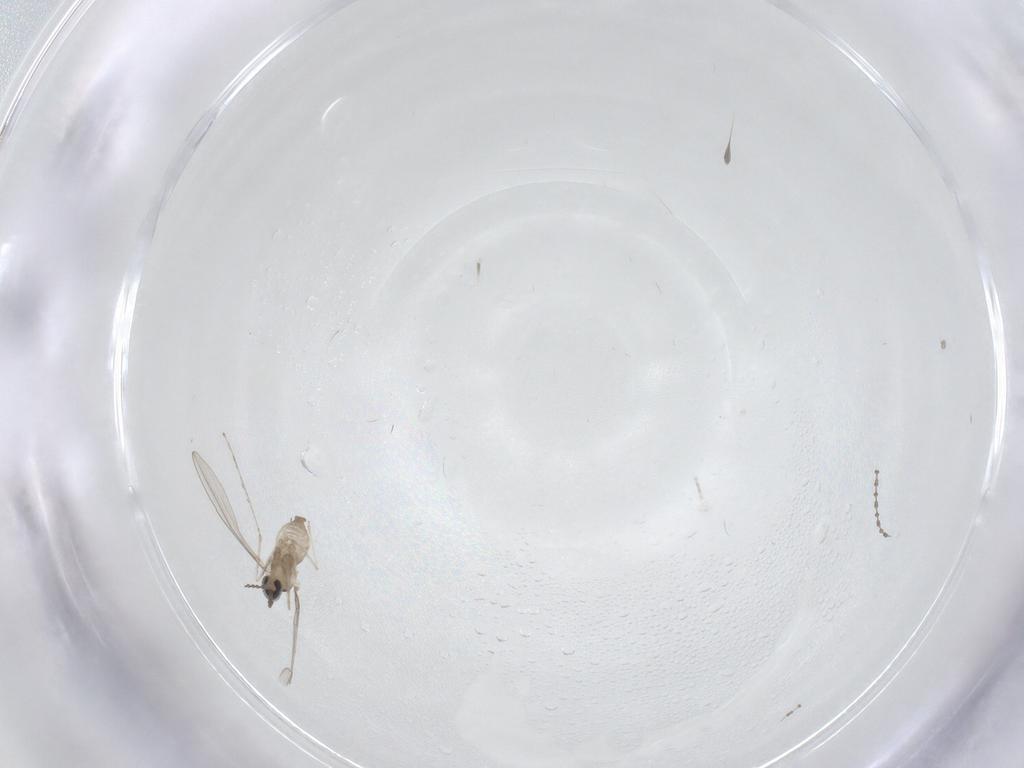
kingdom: Animalia
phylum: Arthropoda
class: Insecta
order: Diptera
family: Cecidomyiidae
